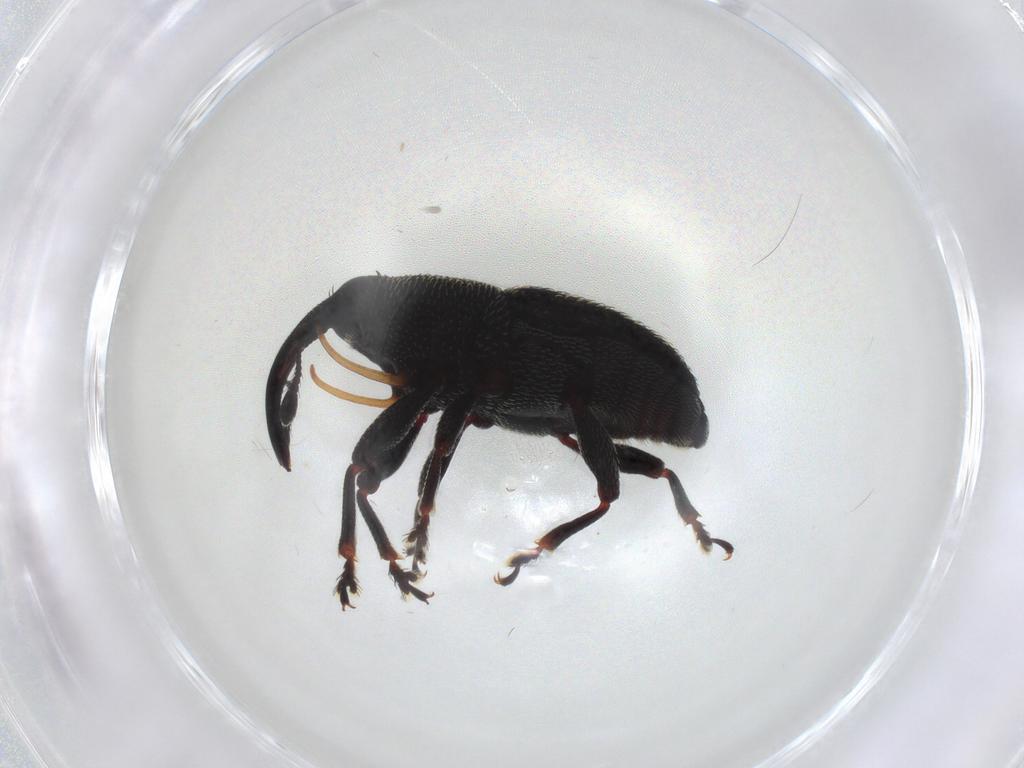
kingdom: Animalia
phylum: Arthropoda
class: Insecta
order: Coleoptera
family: Curculionidae
